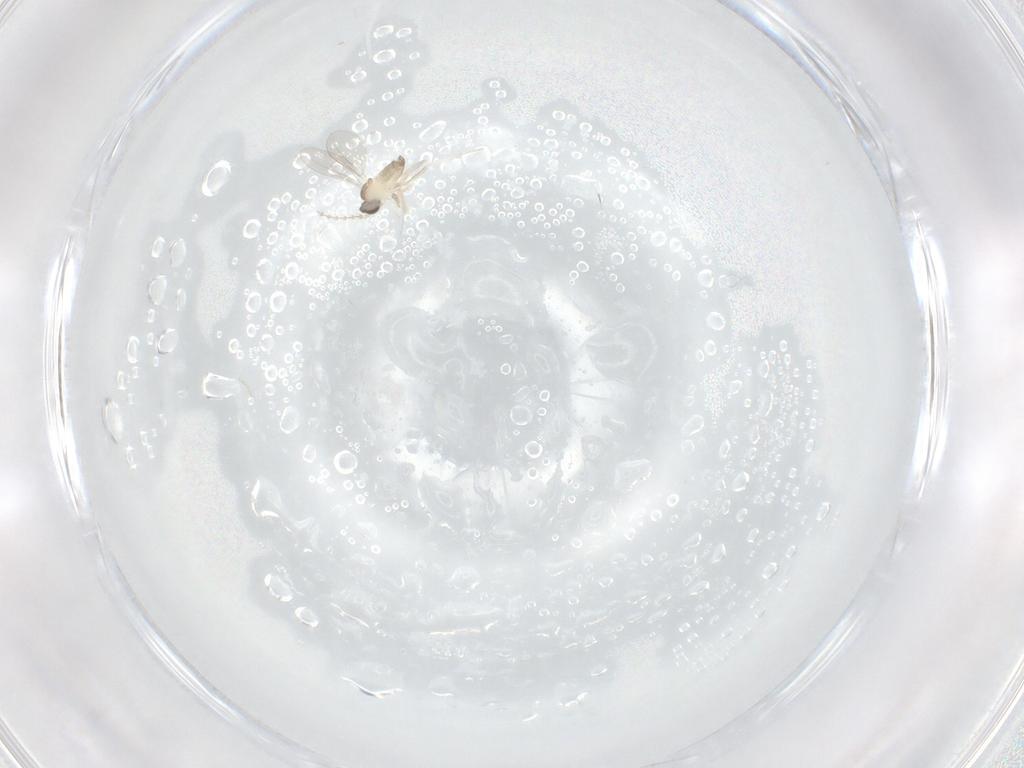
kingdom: Animalia
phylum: Arthropoda
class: Insecta
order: Diptera
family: Cecidomyiidae
